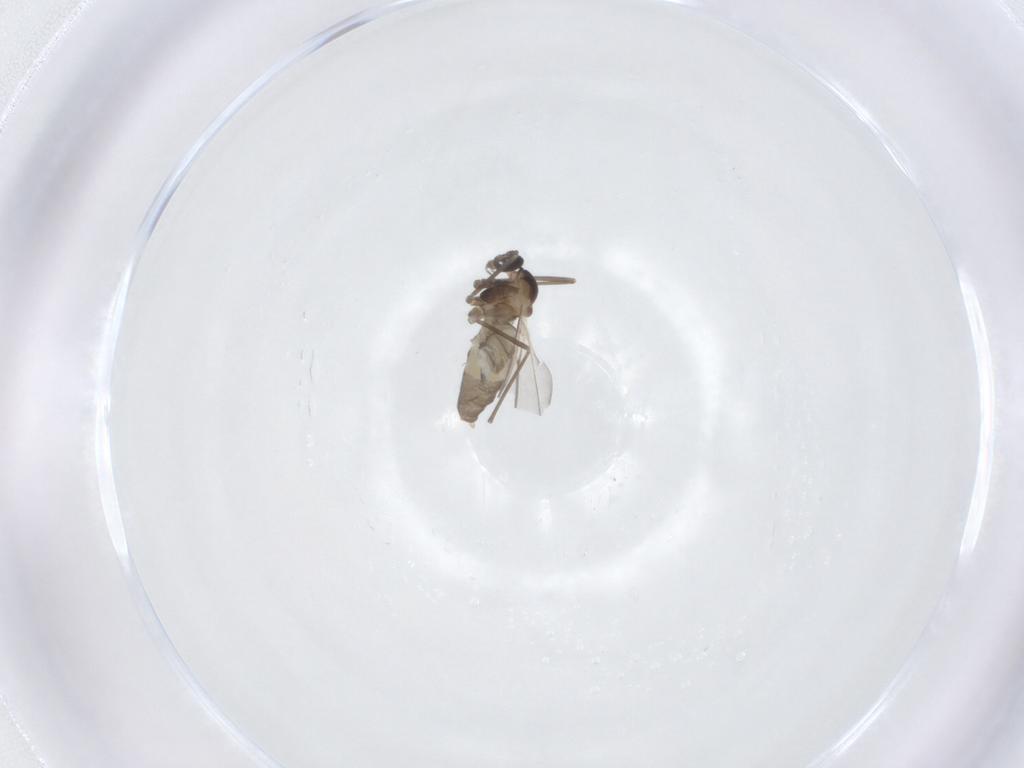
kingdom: Animalia
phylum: Arthropoda
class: Insecta
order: Diptera
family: Cecidomyiidae
